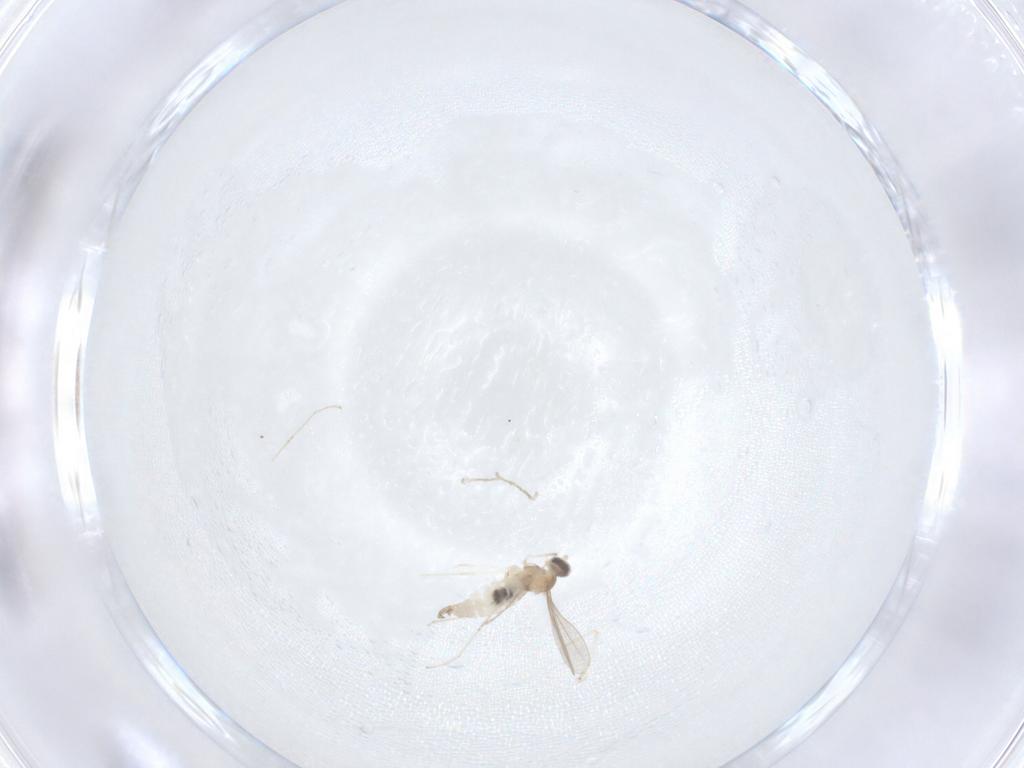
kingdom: Animalia
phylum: Arthropoda
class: Insecta
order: Diptera
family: Cecidomyiidae
